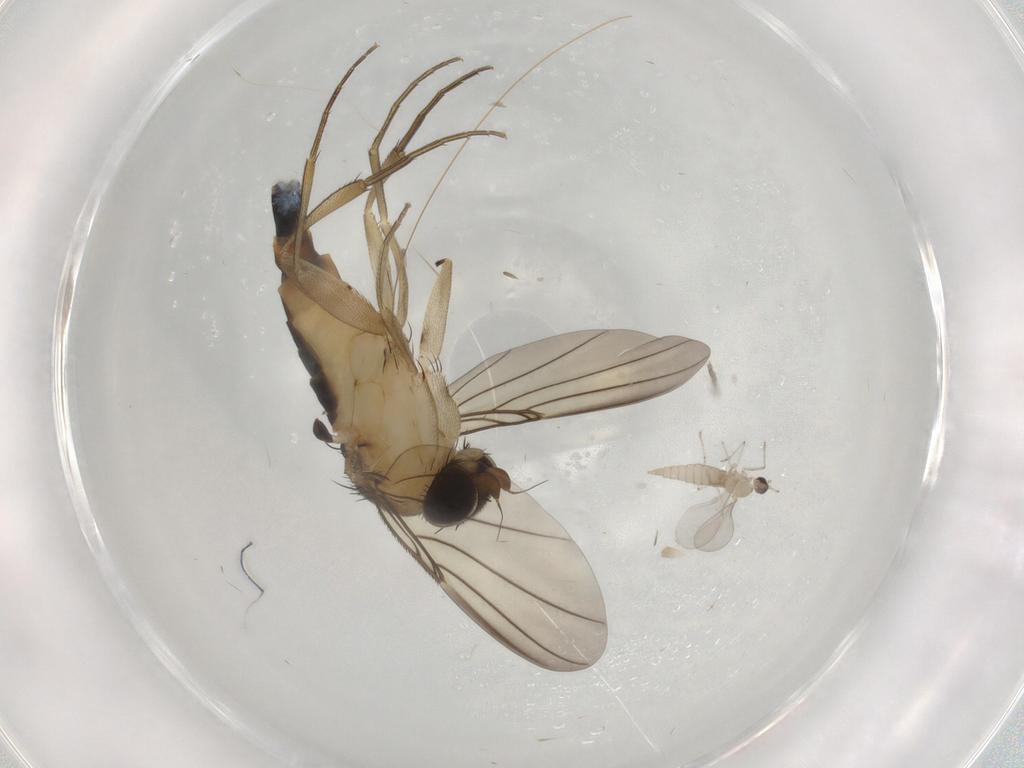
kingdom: Animalia
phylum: Arthropoda
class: Insecta
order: Diptera
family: Phoridae
